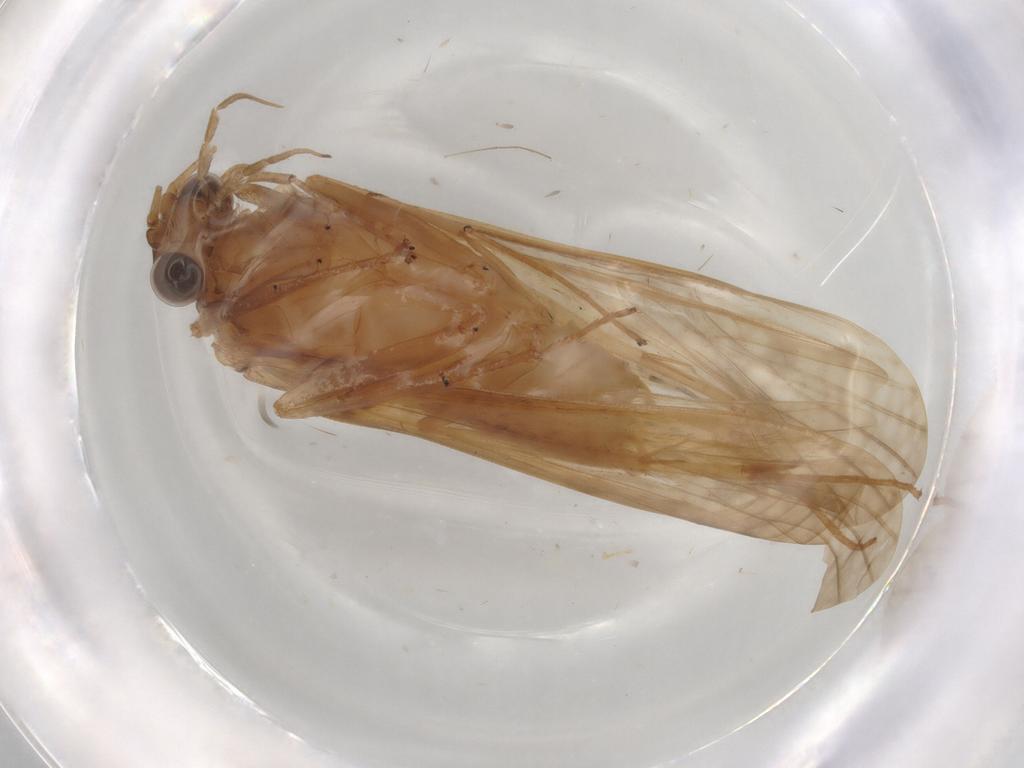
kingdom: Animalia
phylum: Arthropoda
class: Insecta
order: Trichoptera
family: Hydropsychidae
